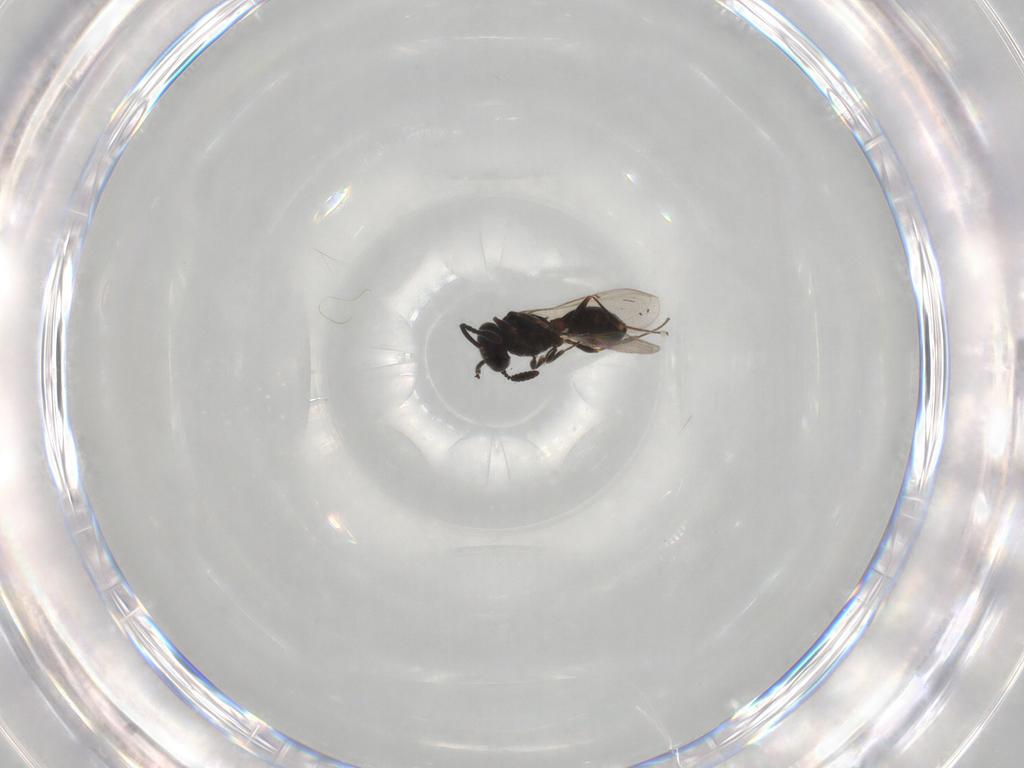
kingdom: Animalia
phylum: Arthropoda
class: Insecta
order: Hymenoptera
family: Scelionidae
